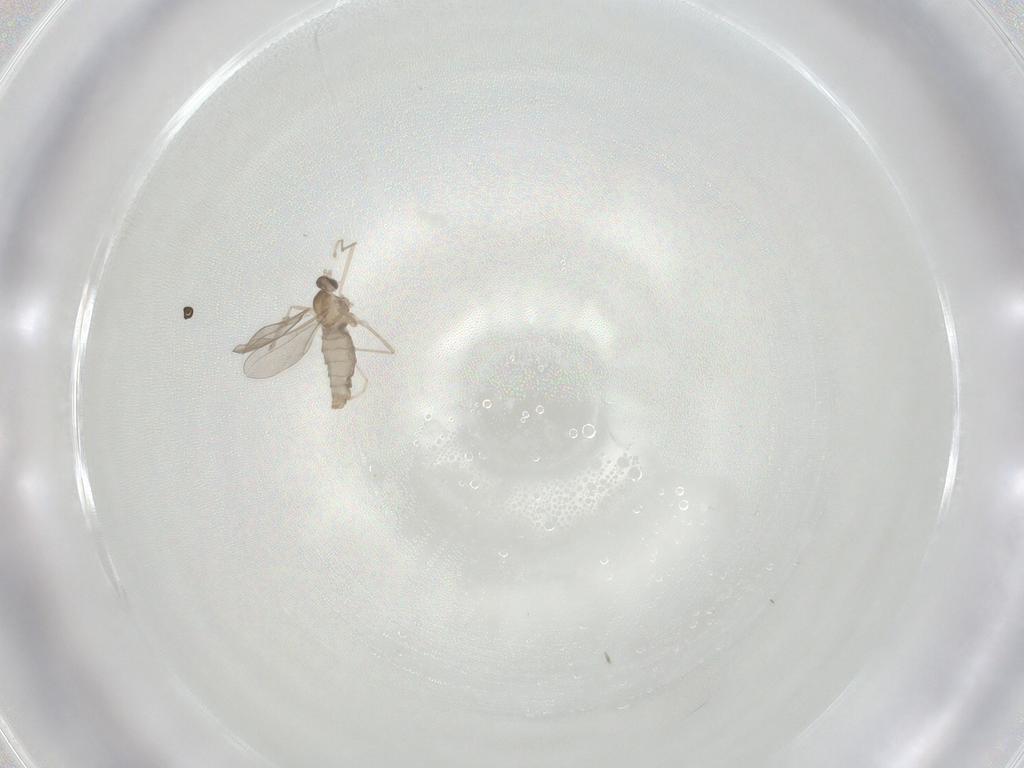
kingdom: Animalia
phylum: Arthropoda
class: Insecta
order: Diptera
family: Cecidomyiidae
